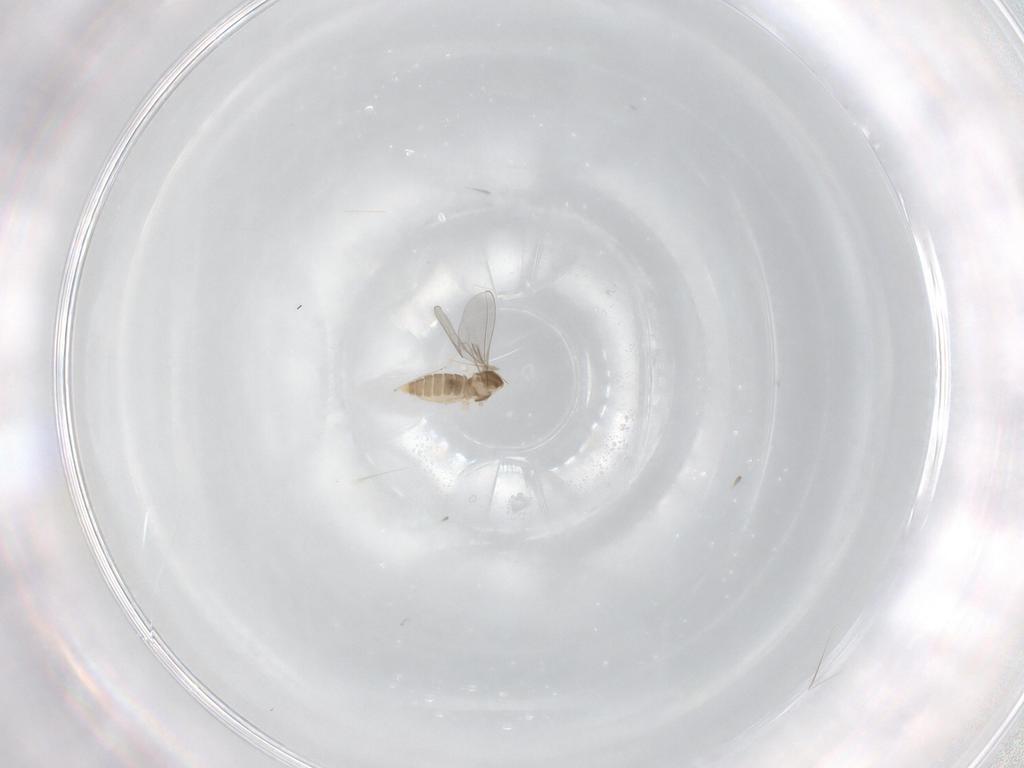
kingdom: Animalia
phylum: Arthropoda
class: Insecta
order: Diptera
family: Cecidomyiidae
